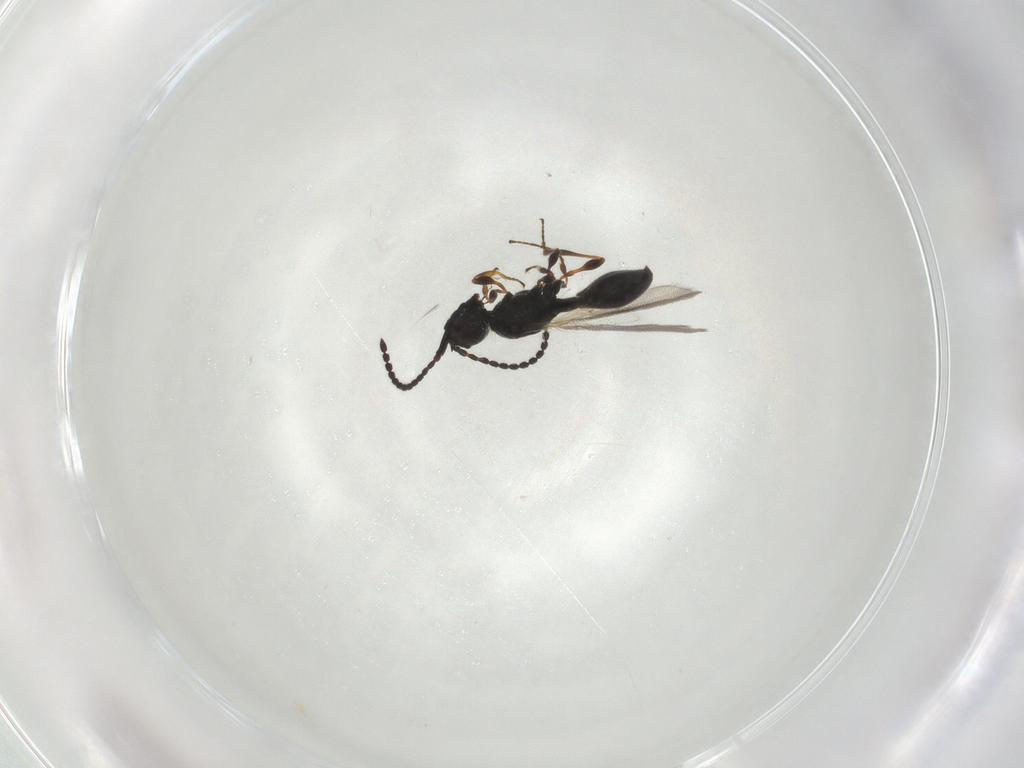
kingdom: Animalia
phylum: Arthropoda
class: Insecta
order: Hymenoptera
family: Diapriidae
